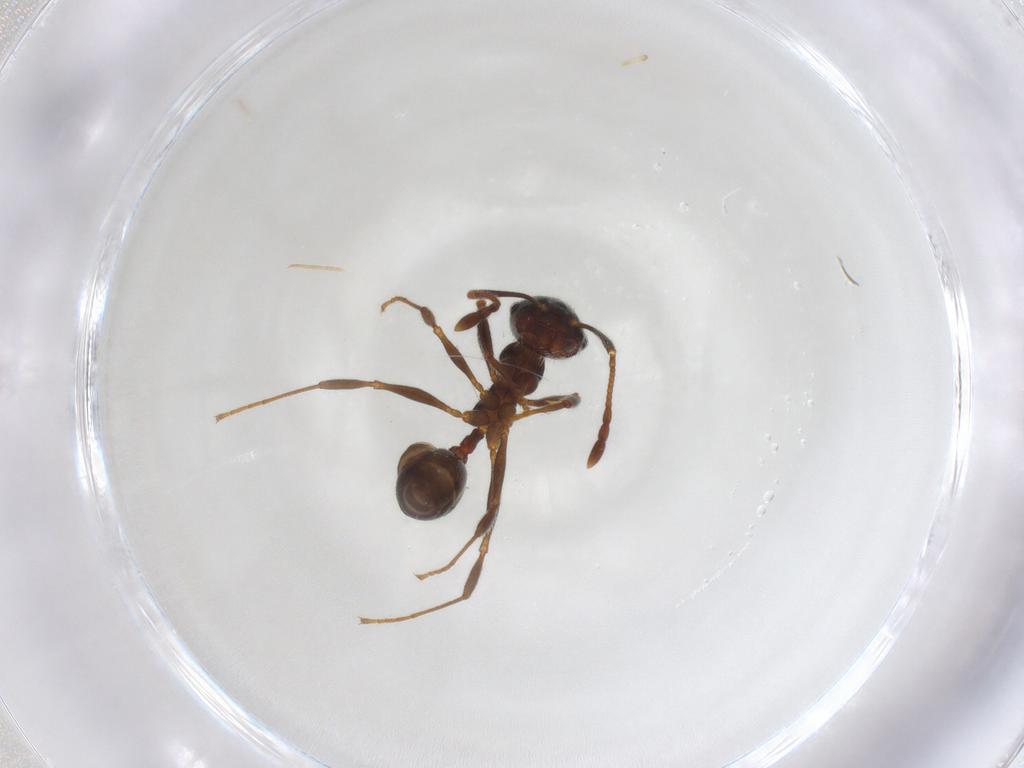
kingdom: Animalia
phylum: Arthropoda
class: Insecta
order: Hymenoptera
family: Formicidae
